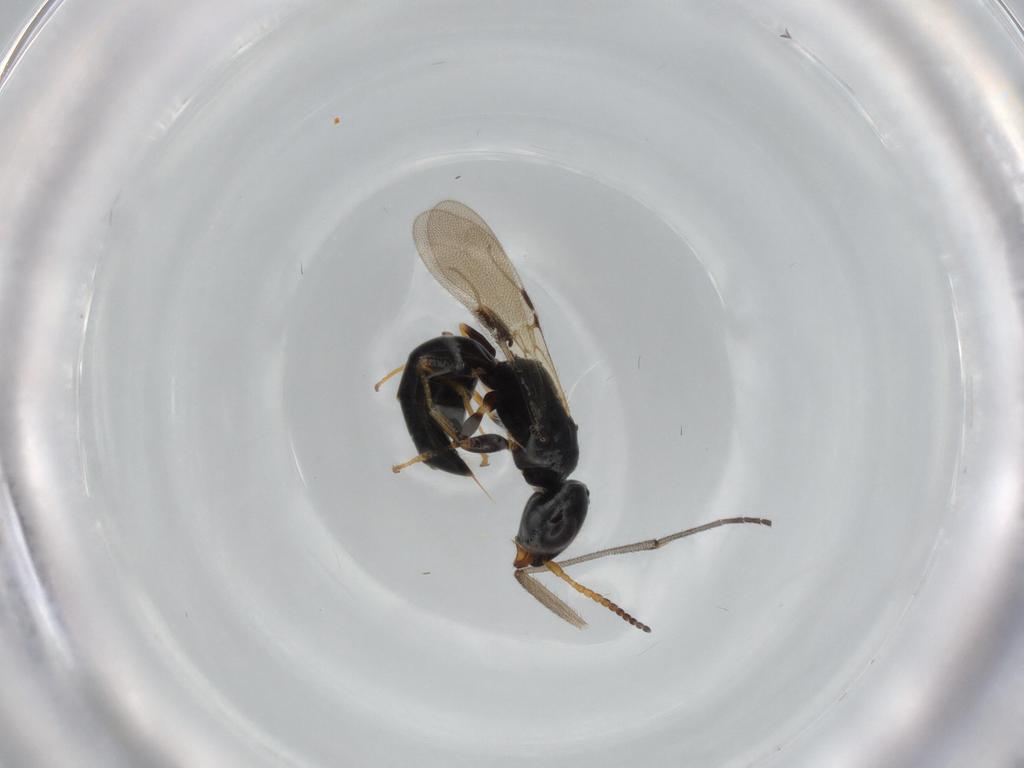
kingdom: Animalia
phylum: Arthropoda
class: Insecta
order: Hymenoptera
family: Bethylidae
